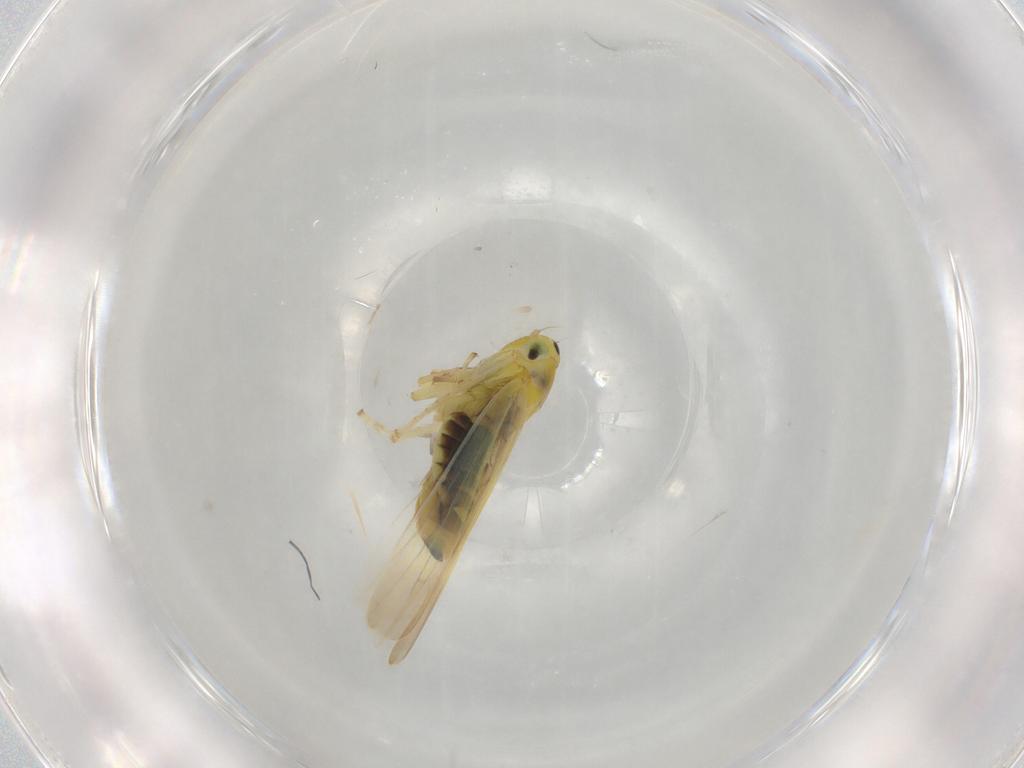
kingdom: Animalia
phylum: Arthropoda
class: Insecta
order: Hemiptera
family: Cicadellidae
